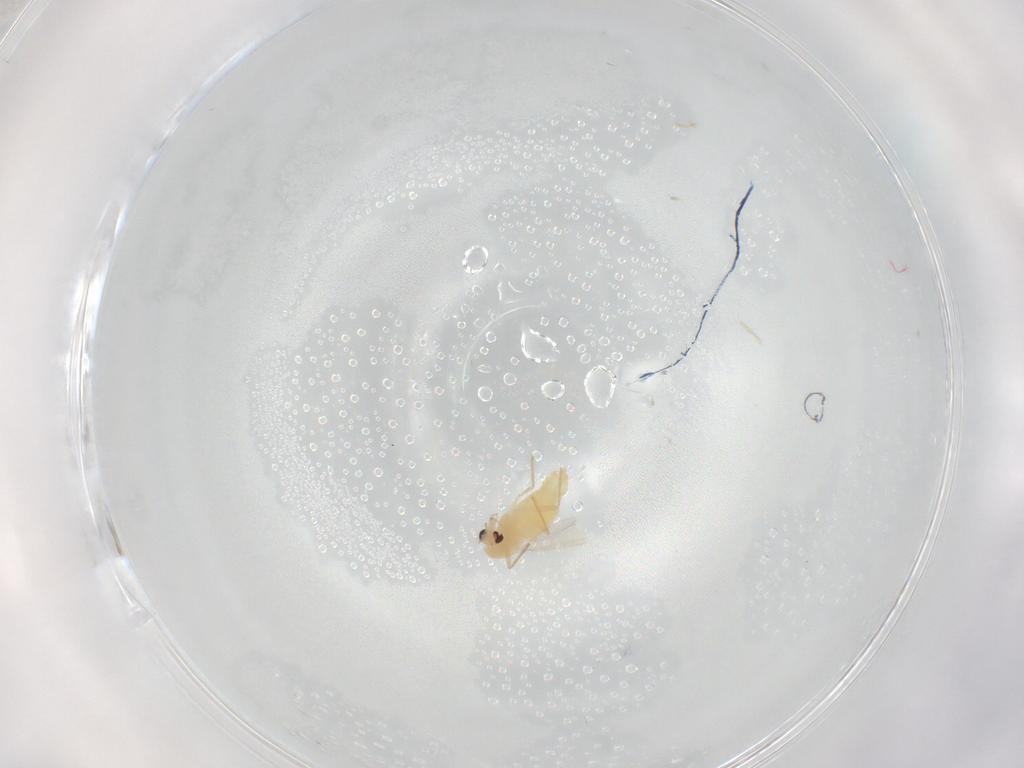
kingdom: Animalia
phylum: Arthropoda
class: Insecta
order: Diptera
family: Chironomidae
